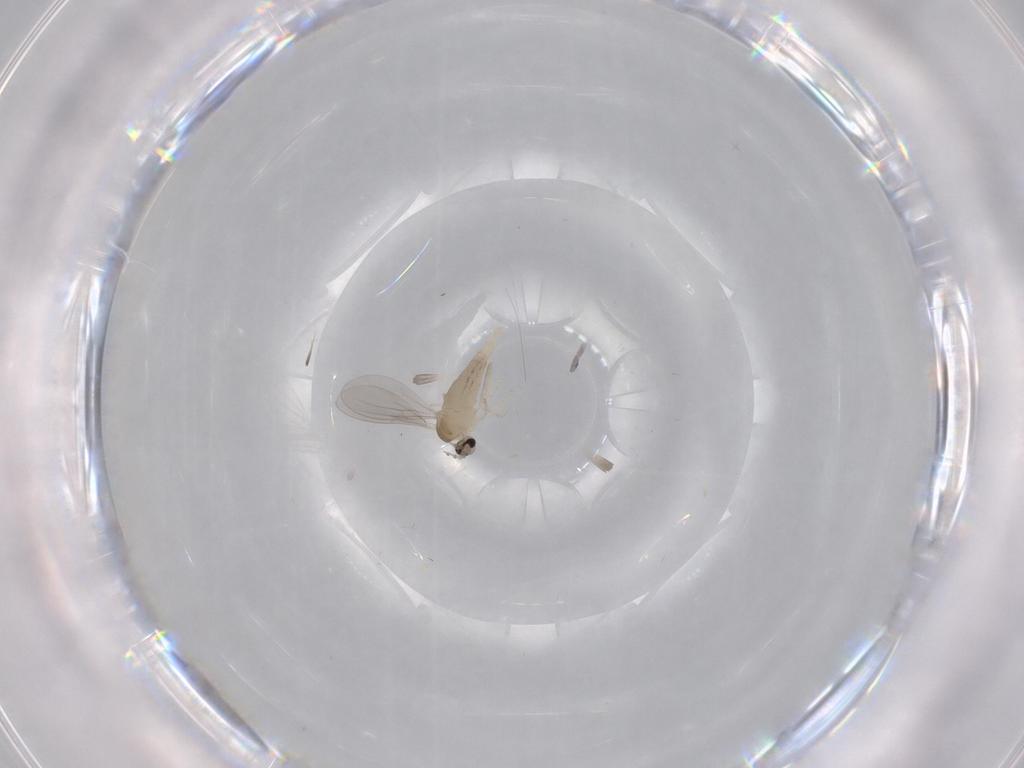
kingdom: Animalia
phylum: Arthropoda
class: Insecta
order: Diptera
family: Cecidomyiidae
